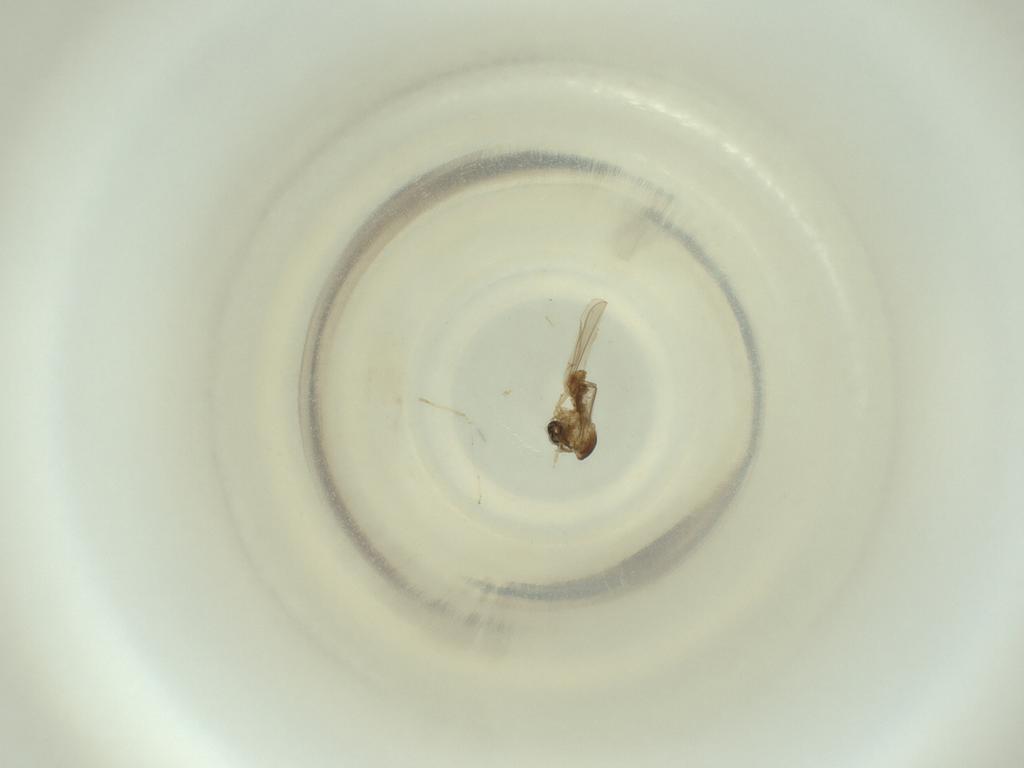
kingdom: Animalia
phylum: Arthropoda
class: Insecta
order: Diptera
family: Cecidomyiidae
